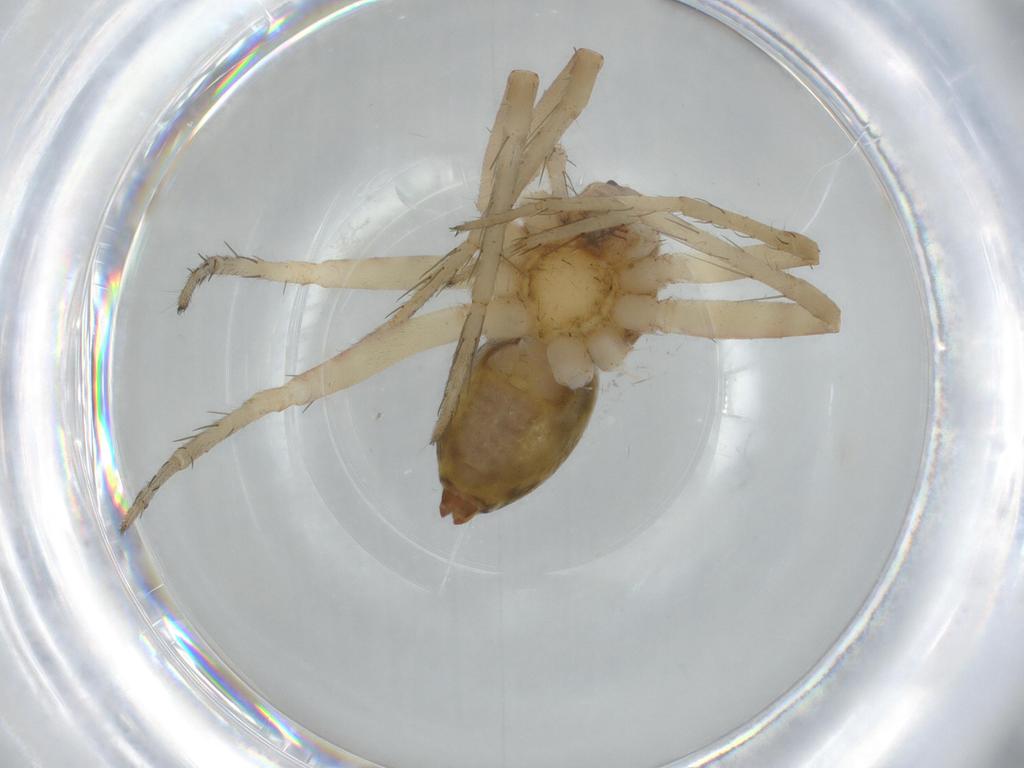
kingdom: Animalia
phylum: Arthropoda
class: Arachnida
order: Araneae
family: Pisauridae
